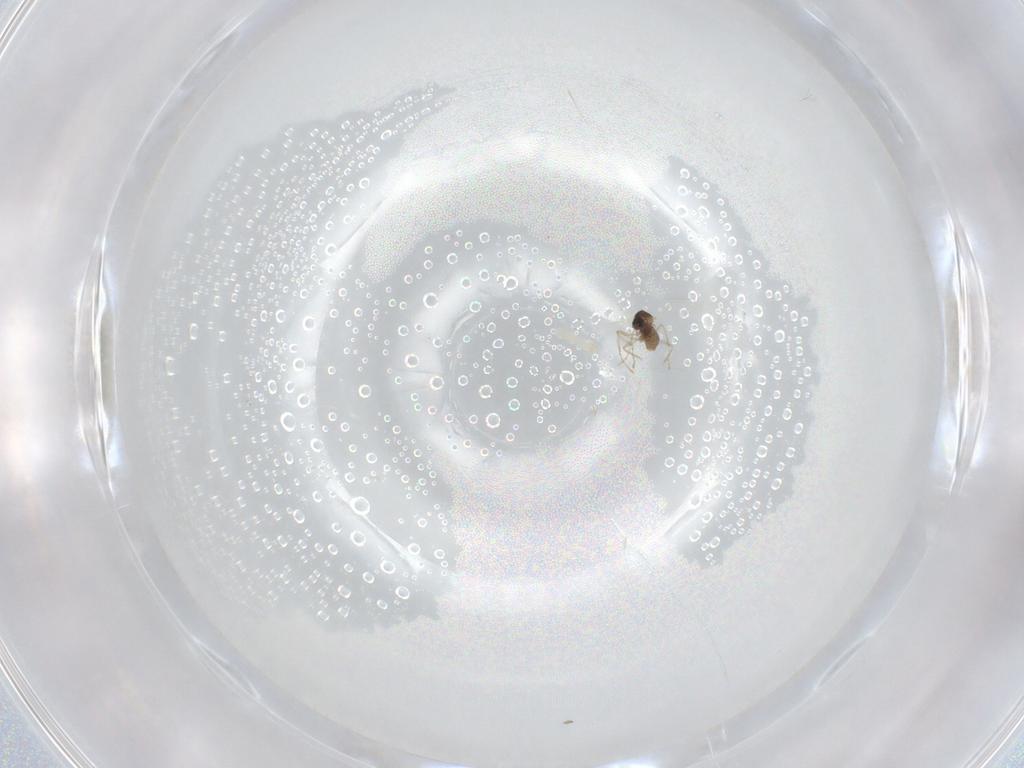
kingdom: Animalia
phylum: Arthropoda
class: Insecta
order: Diptera
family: Cecidomyiidae
